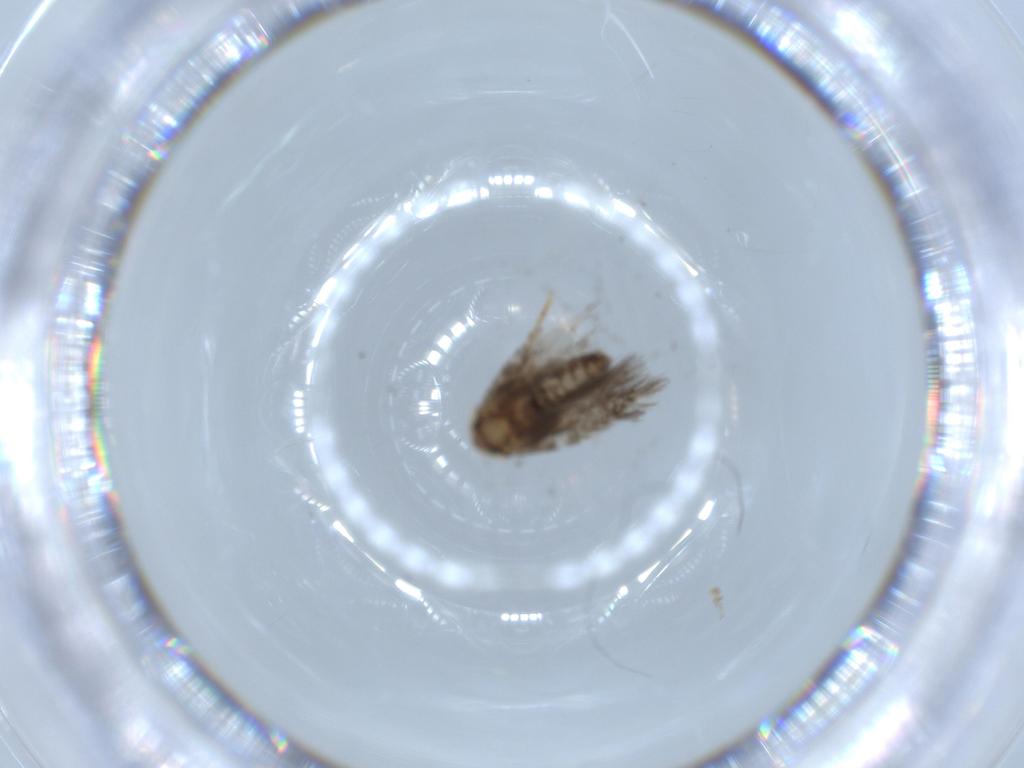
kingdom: Animalia
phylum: Arthropoda
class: Insecta
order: Lepidoptera
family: Nepticulidae
